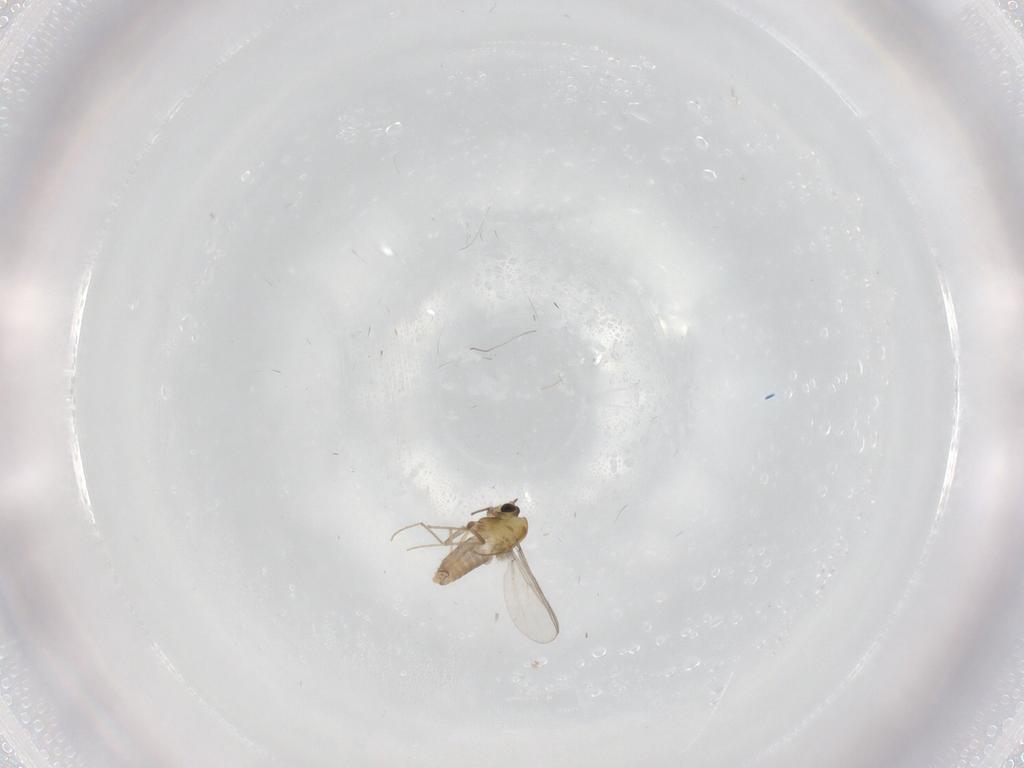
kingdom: Animalia
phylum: Arthropoda
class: Insecta
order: Diptera
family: Chironomidae
